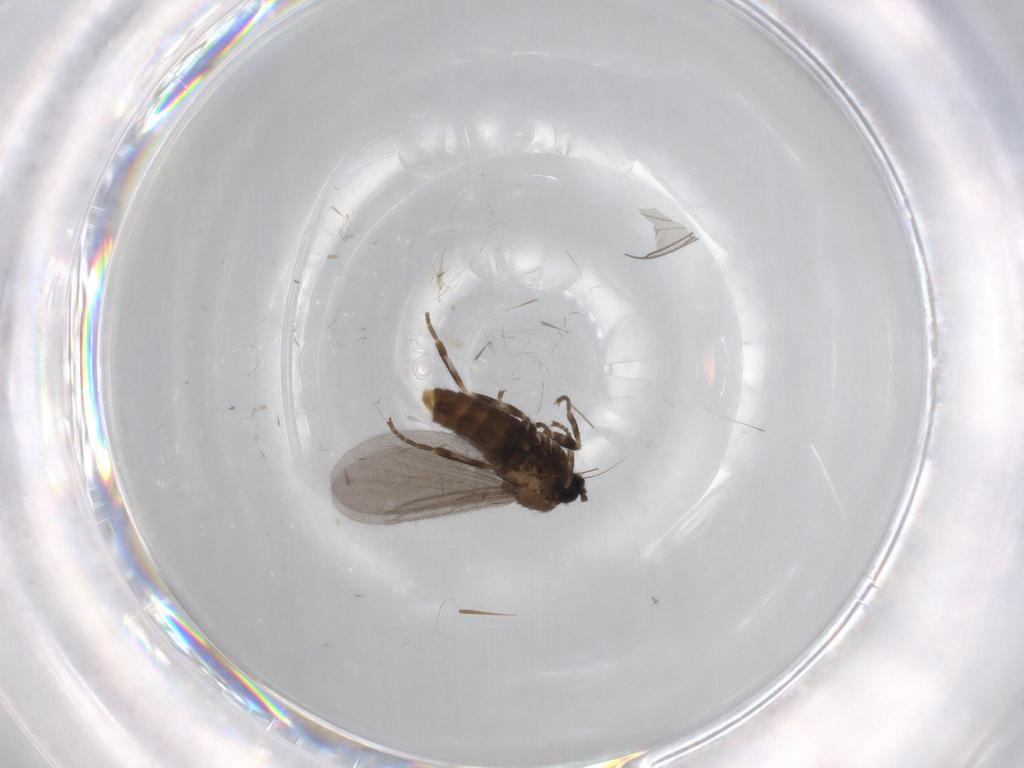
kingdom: Animalia
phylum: Arthropoda
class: Insecta
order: Diptera
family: Scatopsidae
